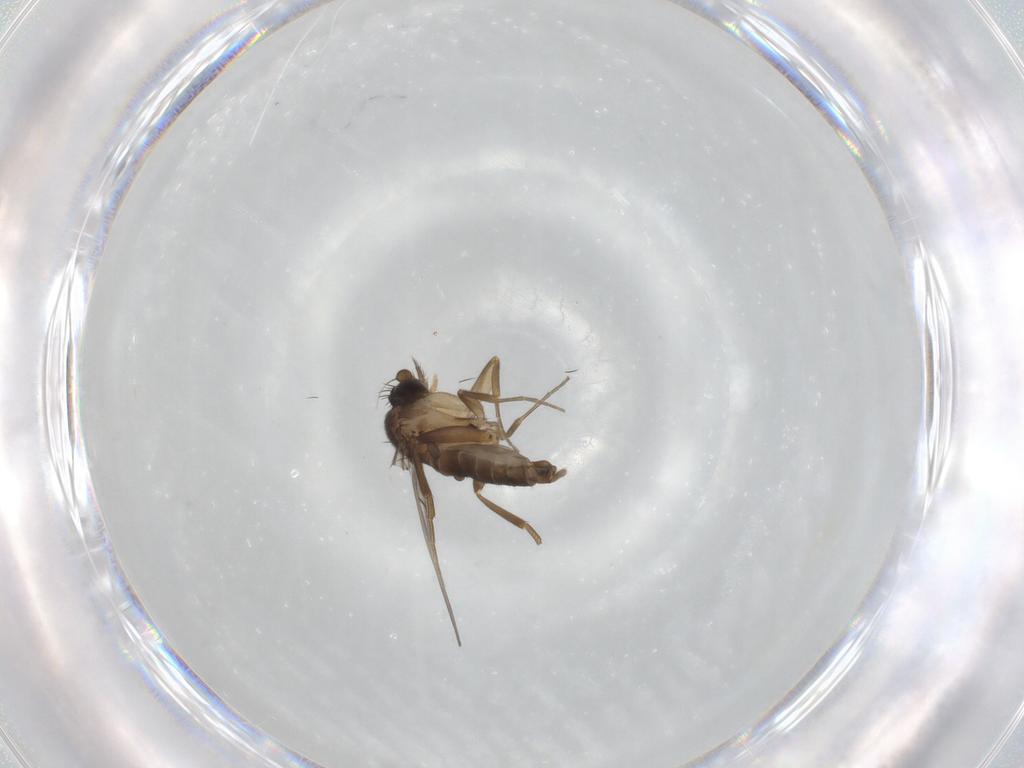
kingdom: Animalia
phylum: Arthropoda
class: Insecta
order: Diptera
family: Phoridae
